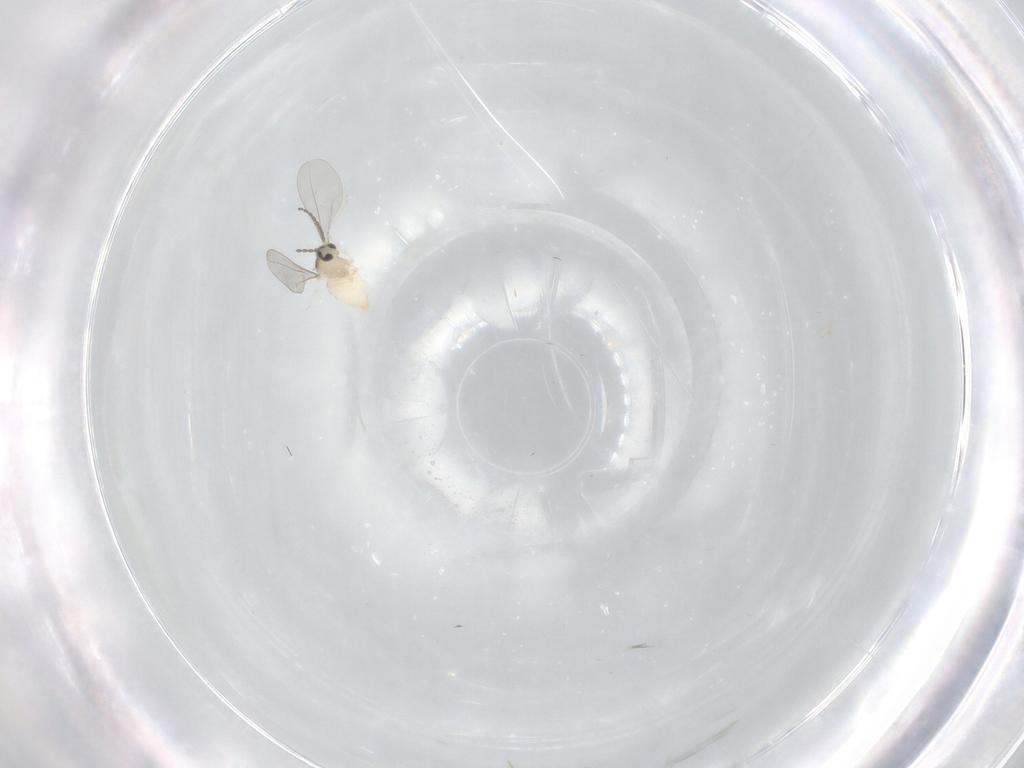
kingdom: Animalia
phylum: Arthropoda
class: Insecta
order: Diptera
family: Cecidomyiidae
